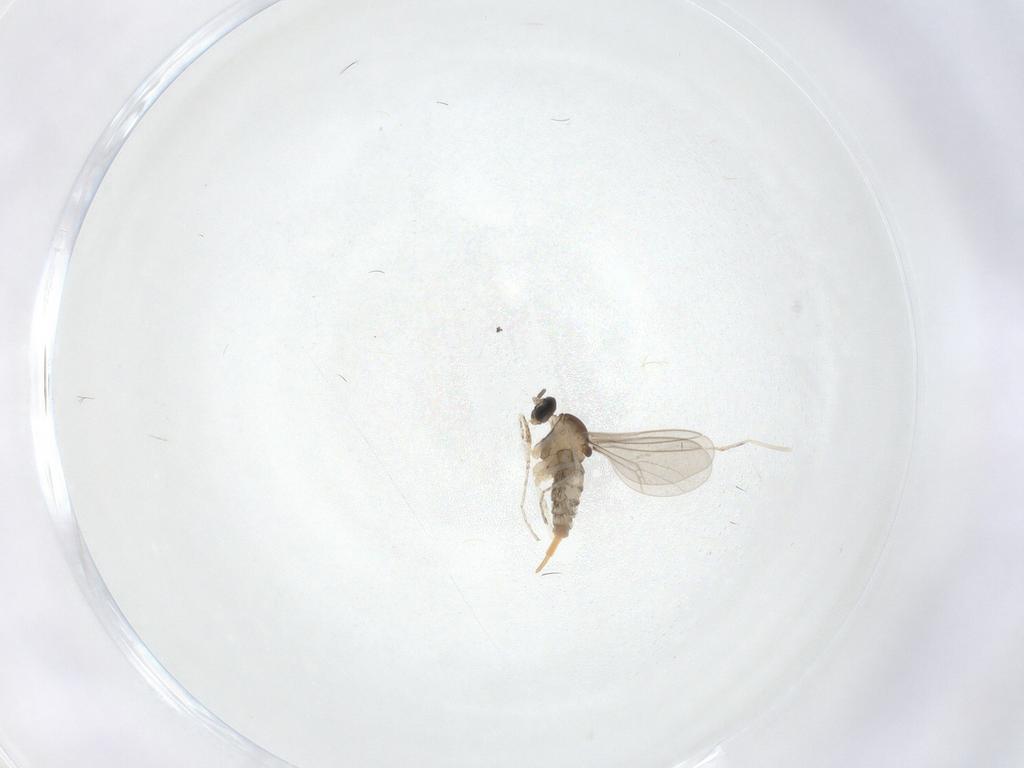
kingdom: Animalia
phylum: Arthropoda
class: Insecta
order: Diptera
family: Cecidomyiidae
